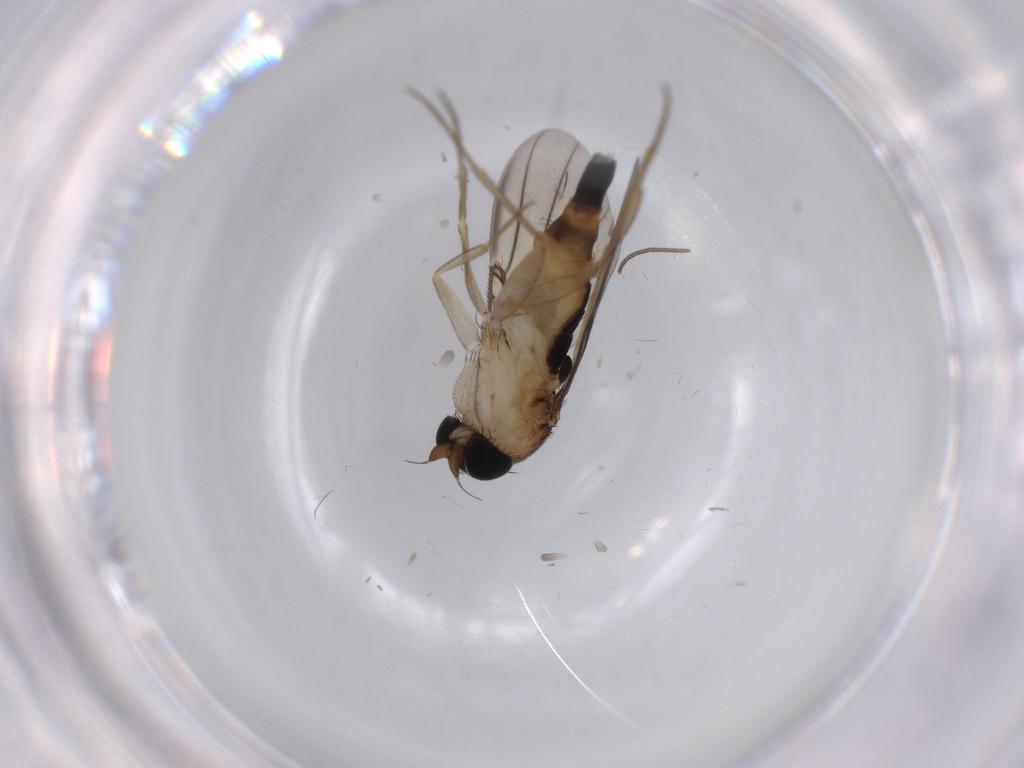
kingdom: Animalia
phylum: Arthropoda
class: Insecta
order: Diptera
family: Phoridae
